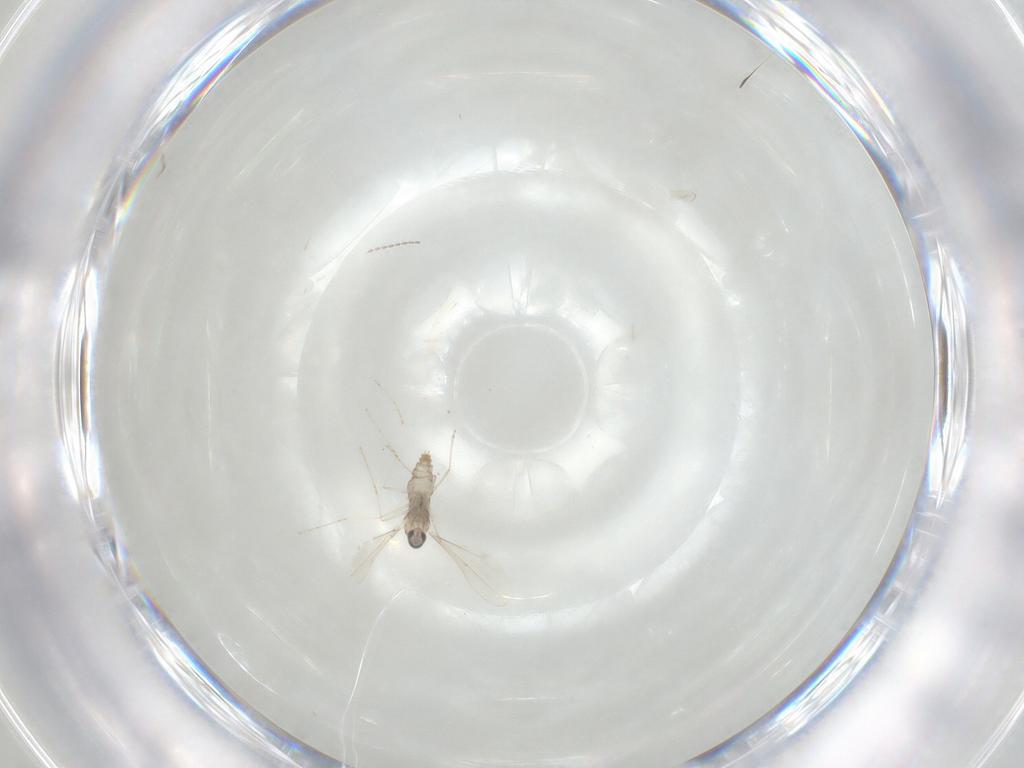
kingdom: Animalia
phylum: Arthropoda
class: Insecta
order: Diptera
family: Cecidomyiidae
